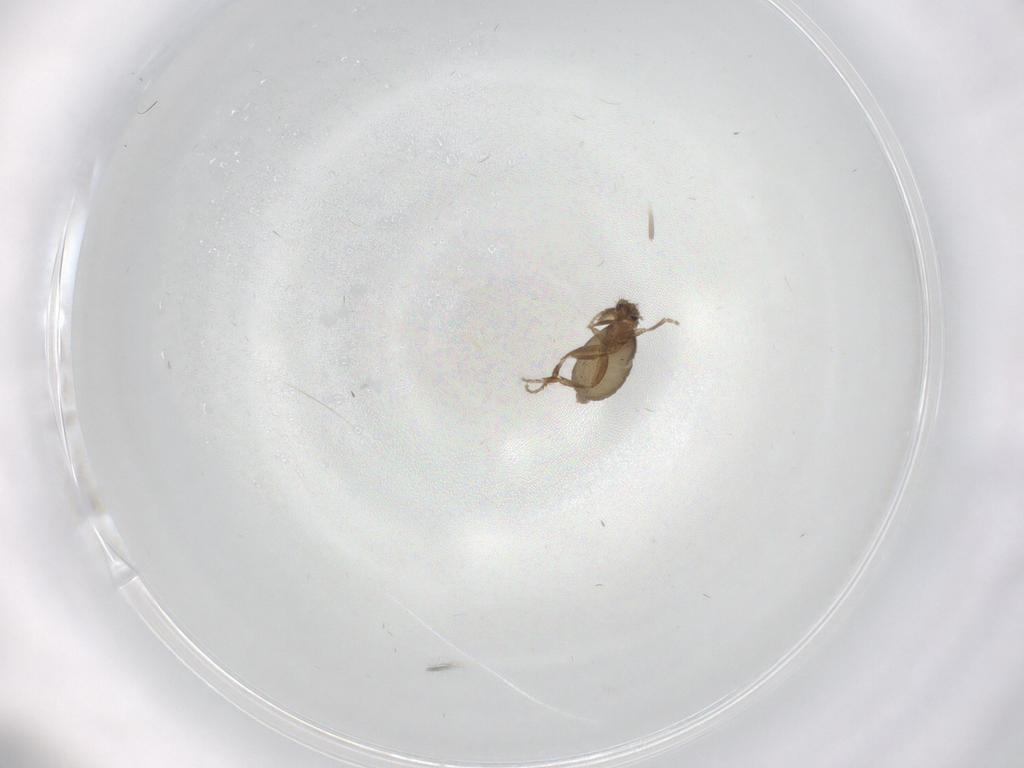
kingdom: Animalia
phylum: Arthropoda
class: Insecta
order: Diptera
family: Phoridae
